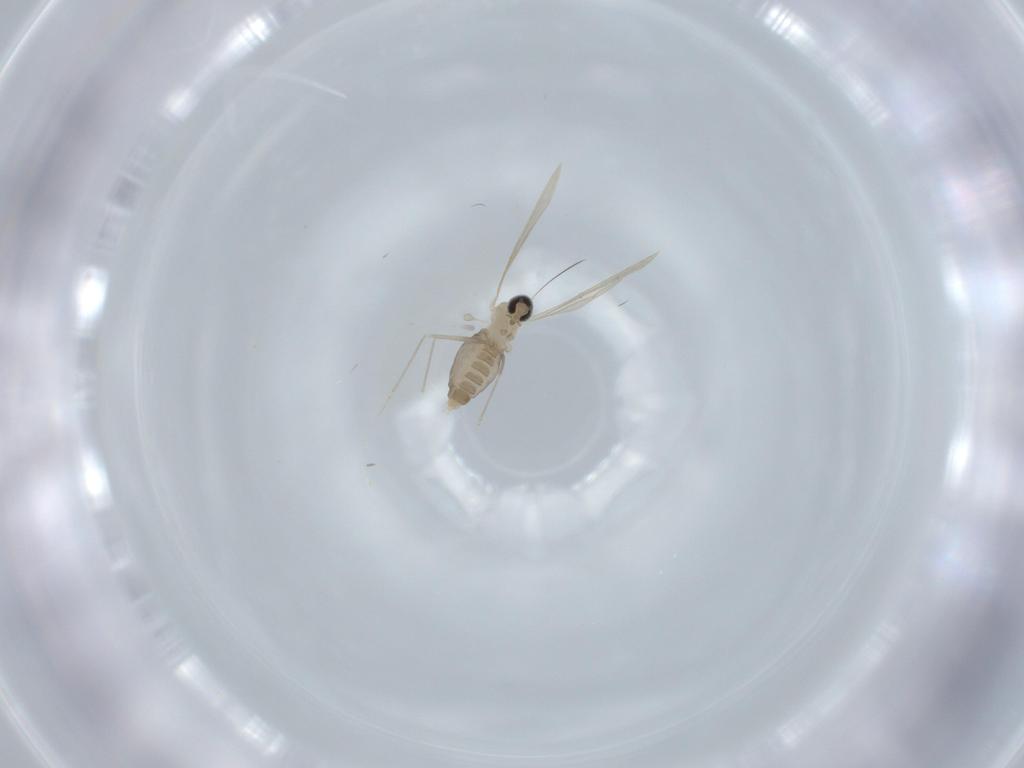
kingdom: Animalia
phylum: Arthropoda
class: Insecta
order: Diptera
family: Cecidomyiidae
